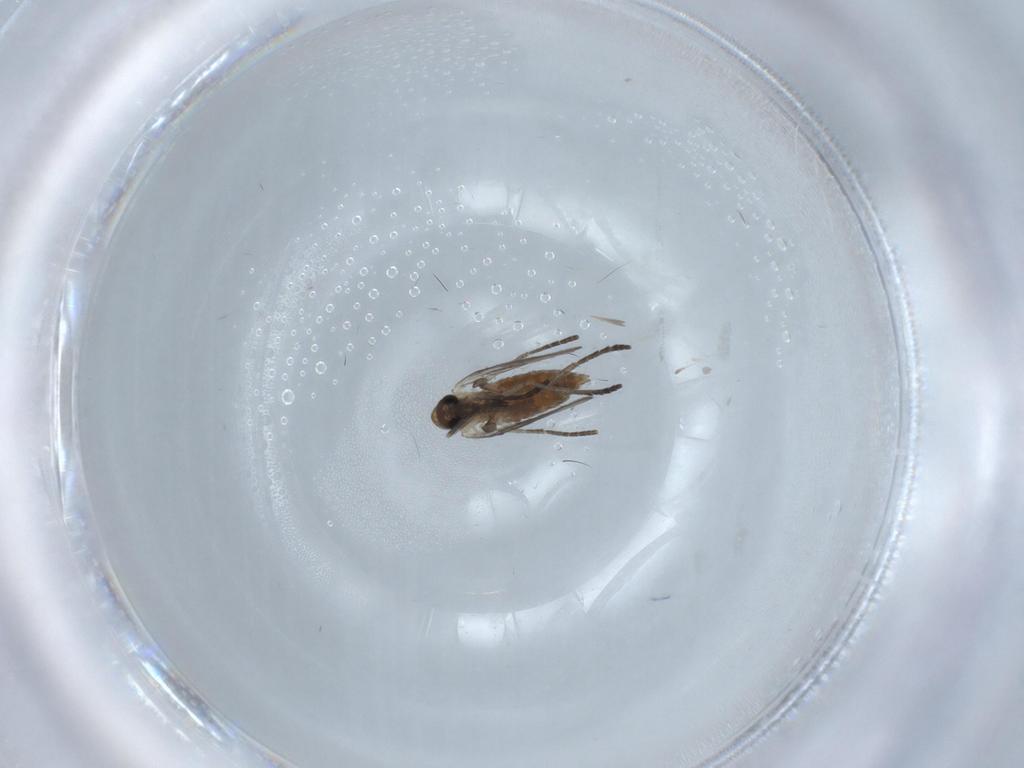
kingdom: Animalia
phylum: Arthropoda
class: Insecta
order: Diptera
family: Psychodidae
